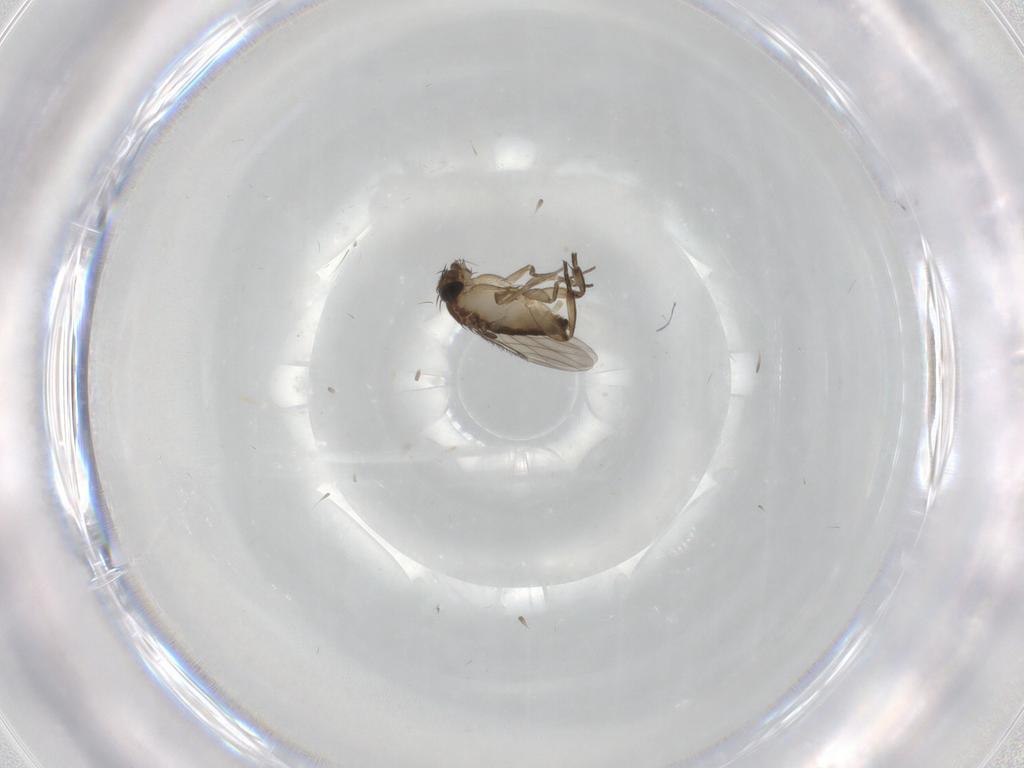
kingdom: Animalia
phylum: Arthropoda
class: Insecta
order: Diptera
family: Phoridae
